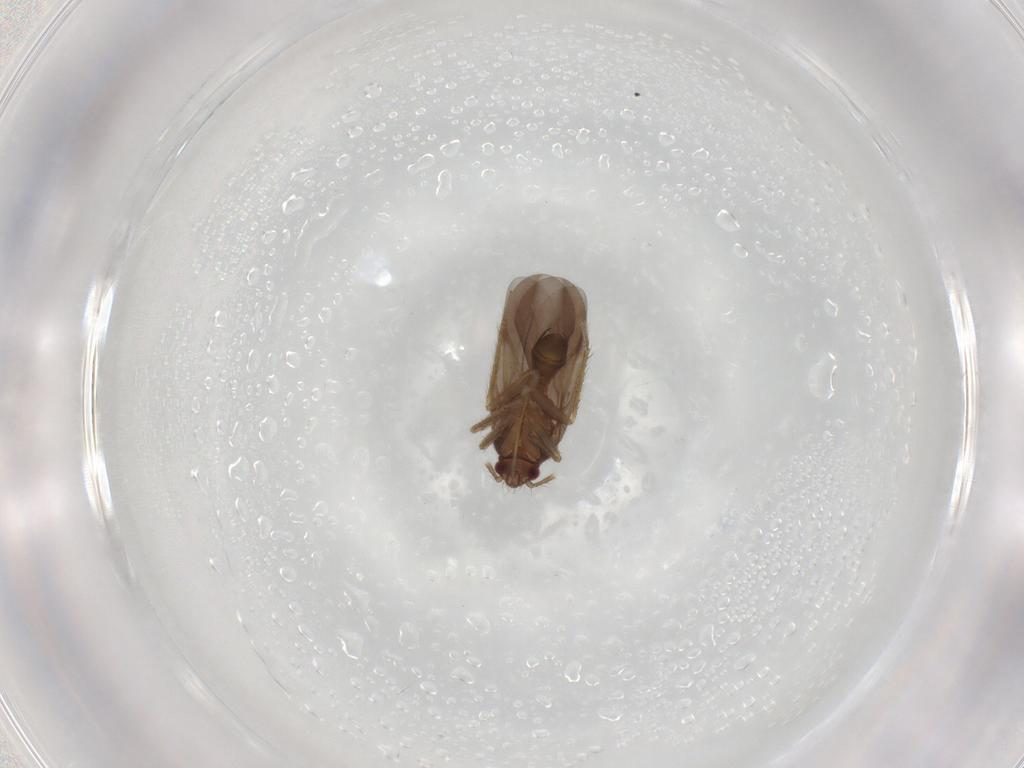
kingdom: Animalia
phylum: Arthropoda
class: Insecta
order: Hemiptera
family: Ceratocombidae
